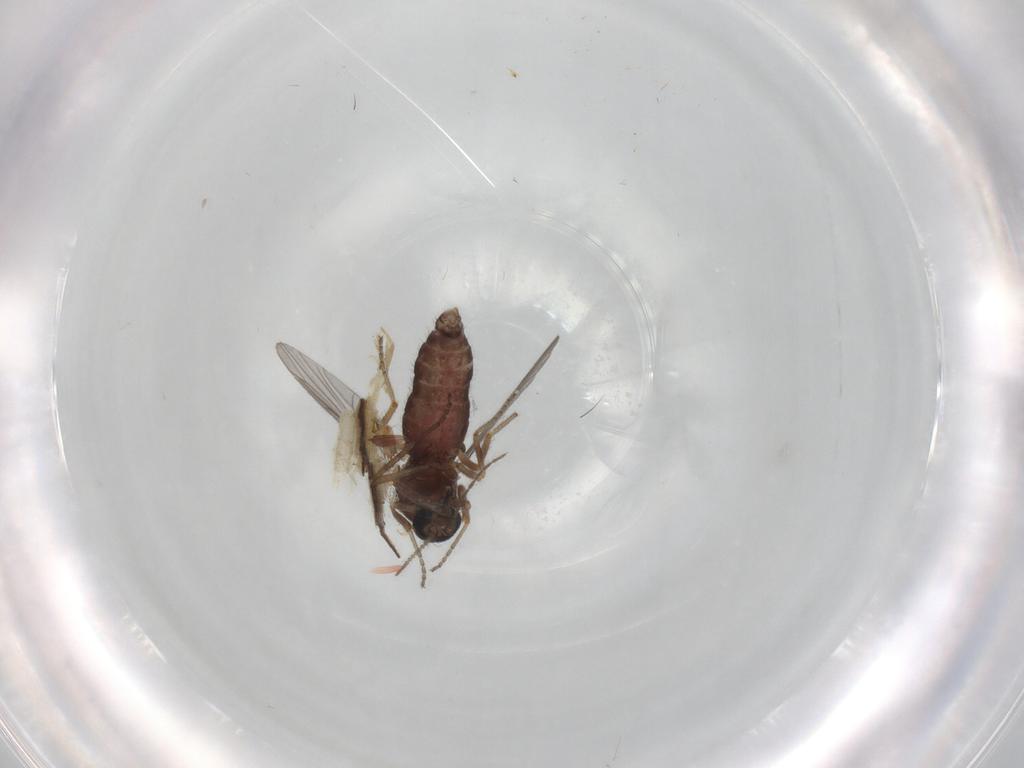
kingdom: Animalia
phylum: Arthropoda
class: Insecta
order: Diptera
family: Ceratopogonidae
